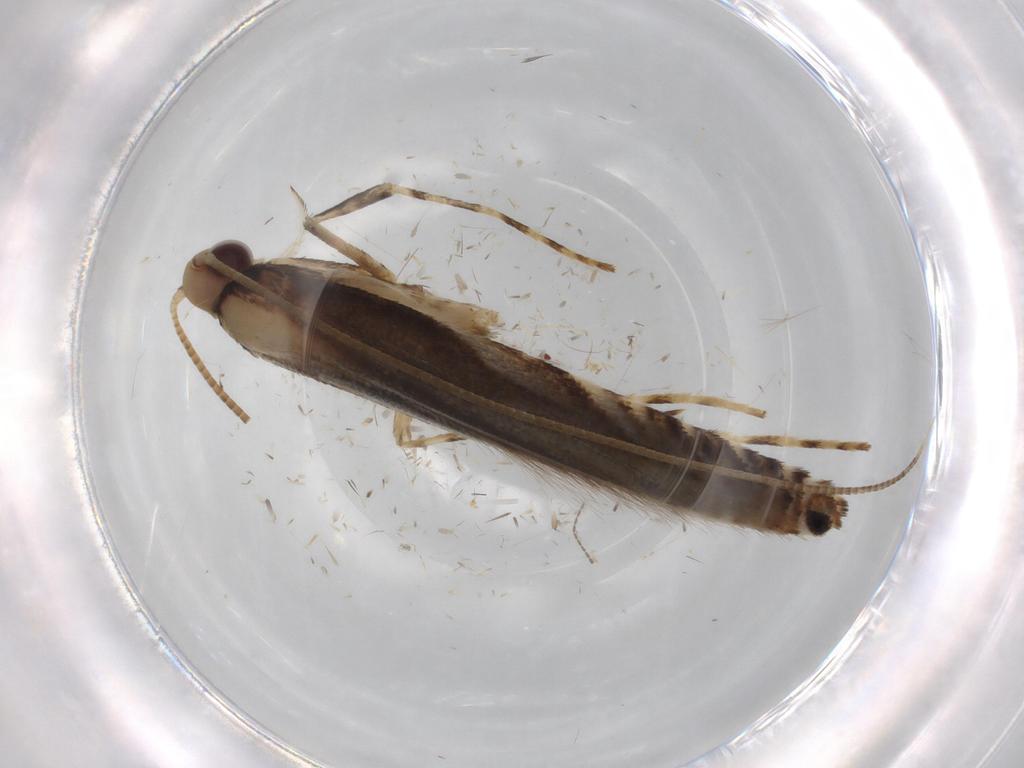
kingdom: Animalia
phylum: Arthropoda
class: Insecta
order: Lepidoptera
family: Gracillariidae
